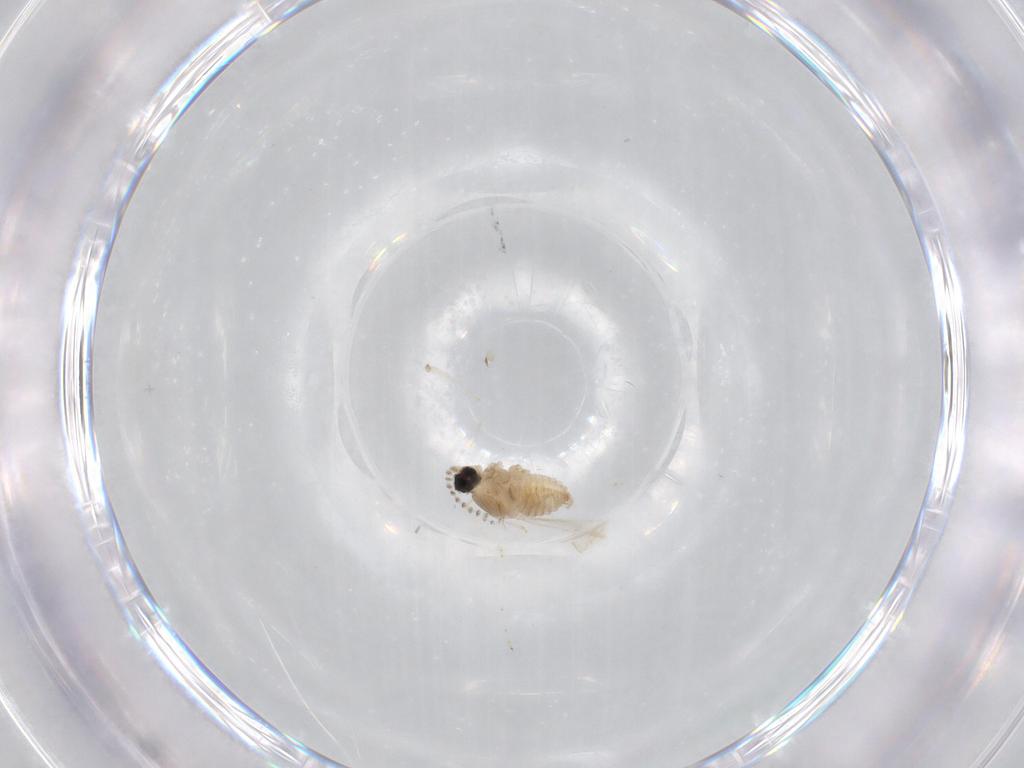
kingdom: Animalia
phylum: Arthropoda
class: Insecta
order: Diptera
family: Cecidomyiidae
